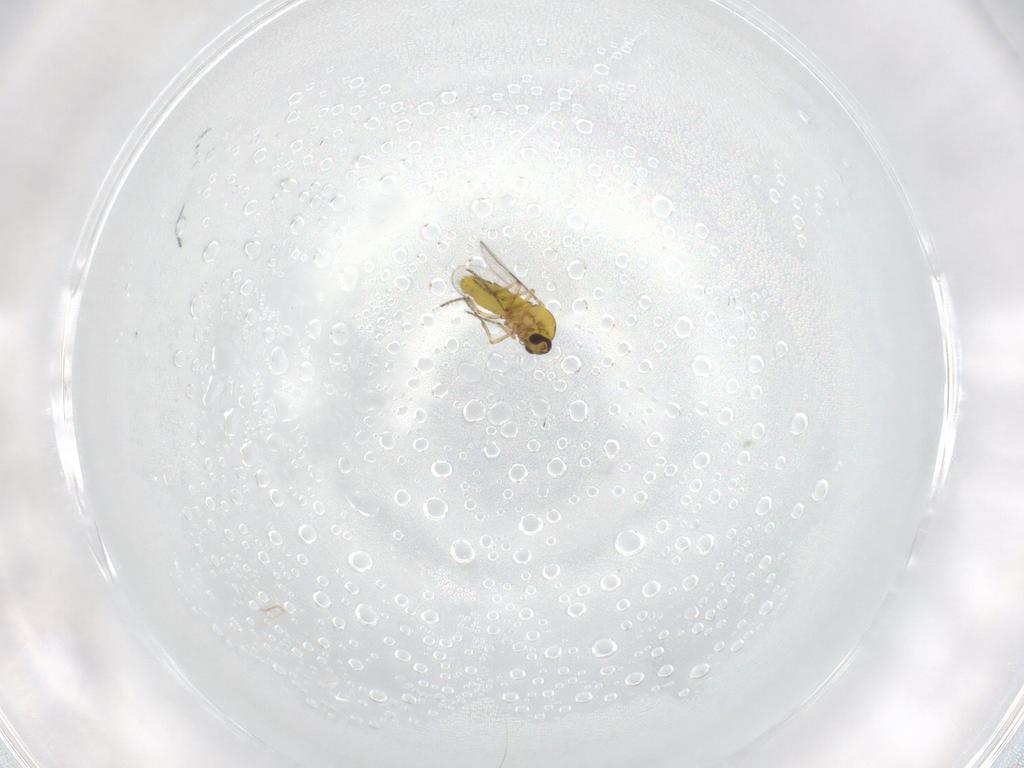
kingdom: Animalia
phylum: Arthropoda
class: Insecta
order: Diptera
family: Ceratopogonidae
